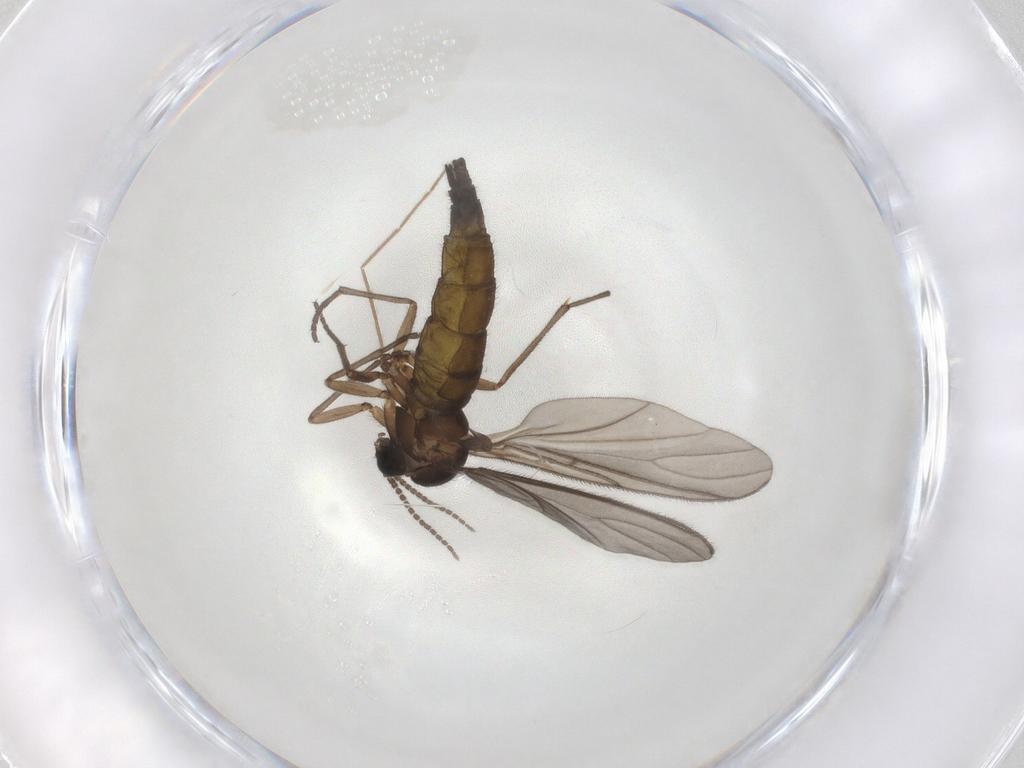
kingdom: Animalia
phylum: Arthropoda
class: Insecta
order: Diptera
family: Sciaridae
